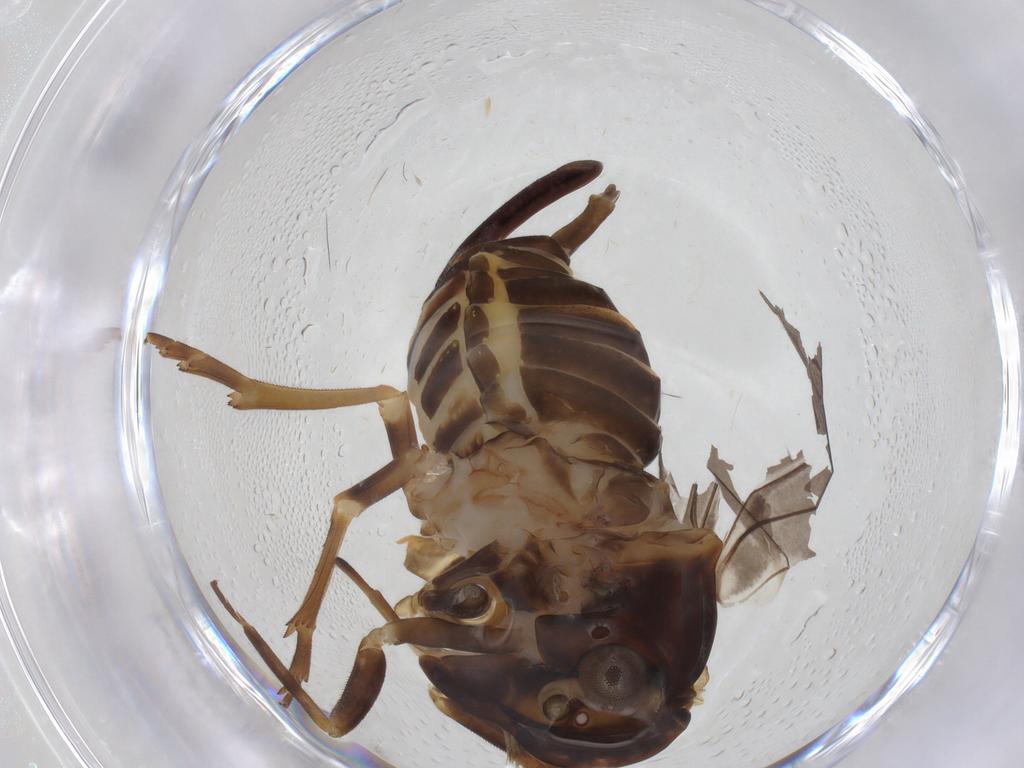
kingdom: Animalia
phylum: Arthropoda
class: Insecta
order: Hemiptera
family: Cixiidae
